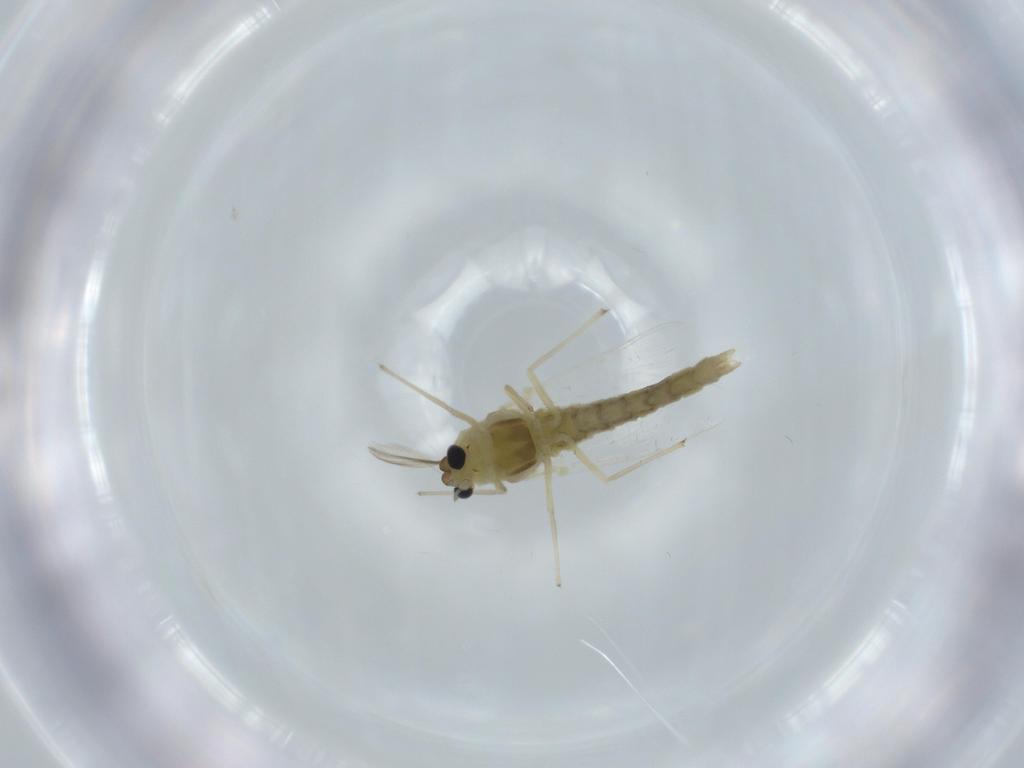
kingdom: Animalia
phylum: Arthropoda
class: Insecta
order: Diptera
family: Chironomidae
